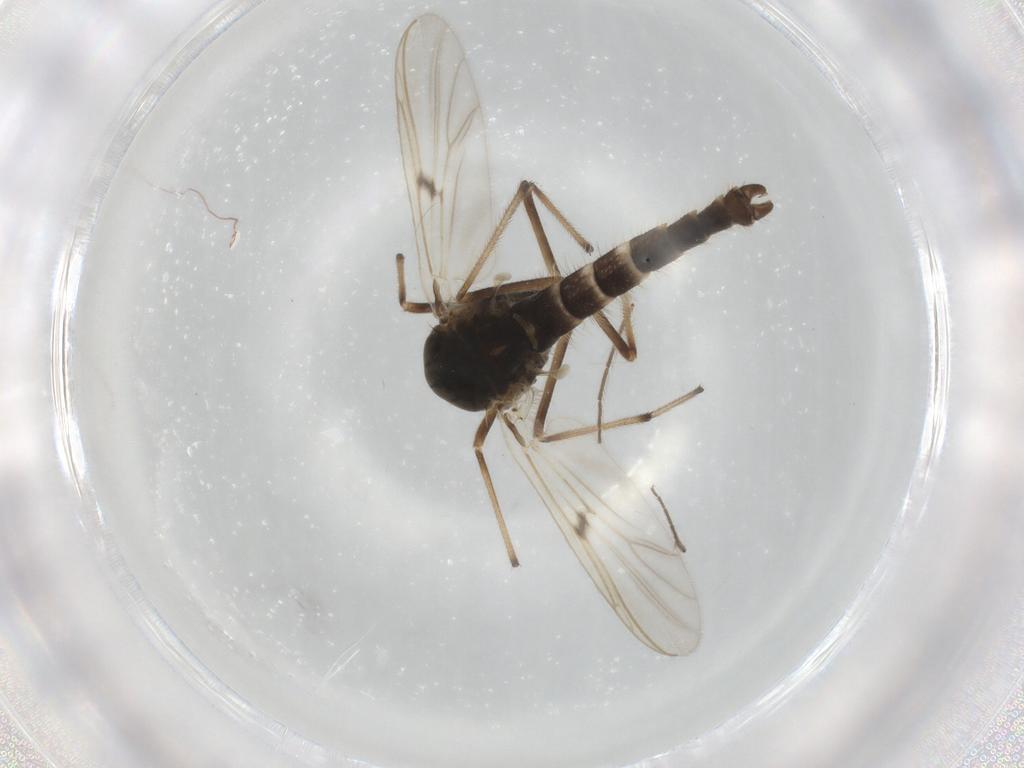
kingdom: Animalia
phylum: Arthropoda
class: Insecta
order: Diptera
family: Chironomidae
